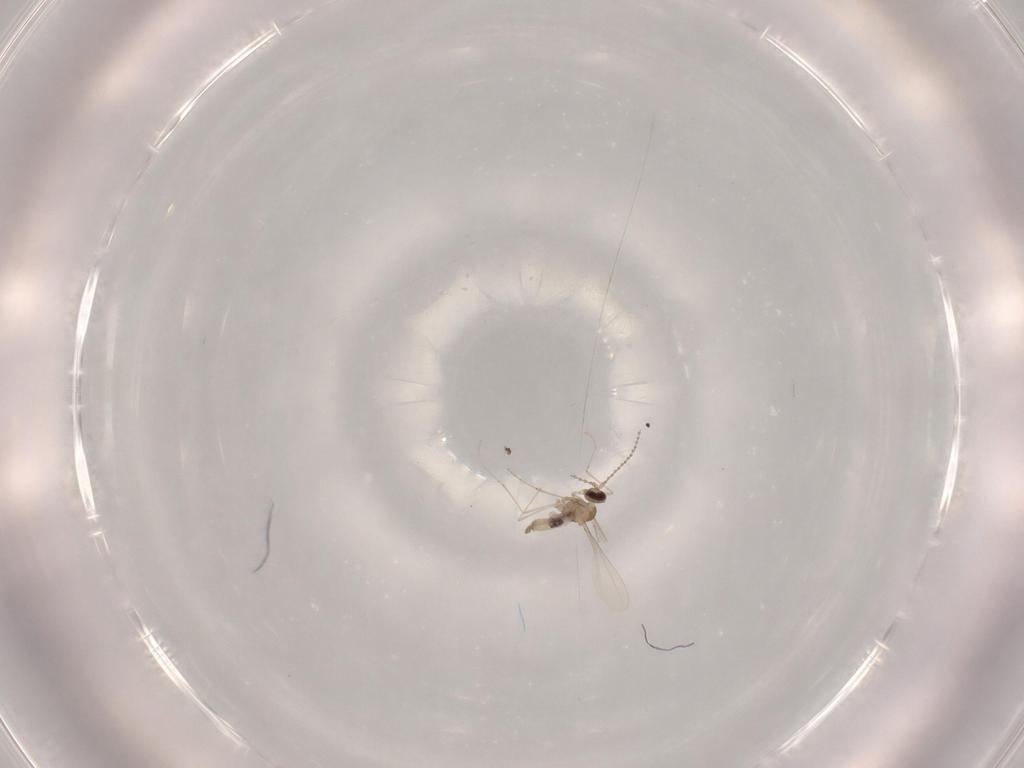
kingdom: Animalia
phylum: Arthropoda
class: Insecta
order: Diptera
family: Cecidomyiidae
